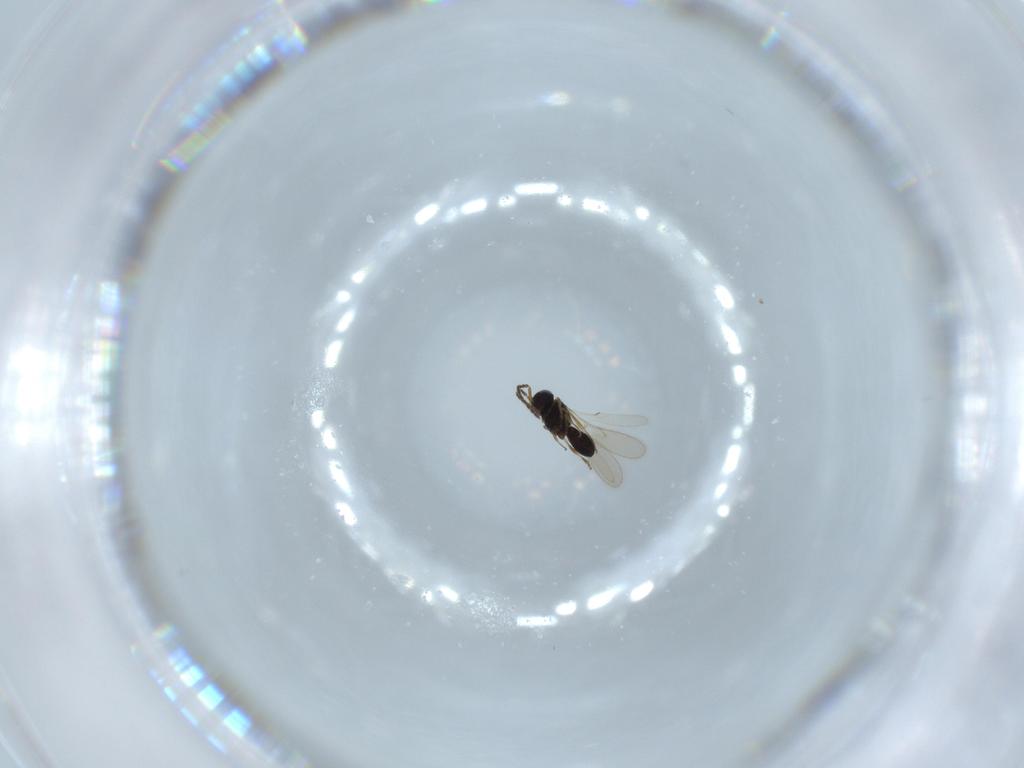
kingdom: Animalia
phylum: Arthropoda
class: Insecta
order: Hymenoptera
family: Scelionidae
